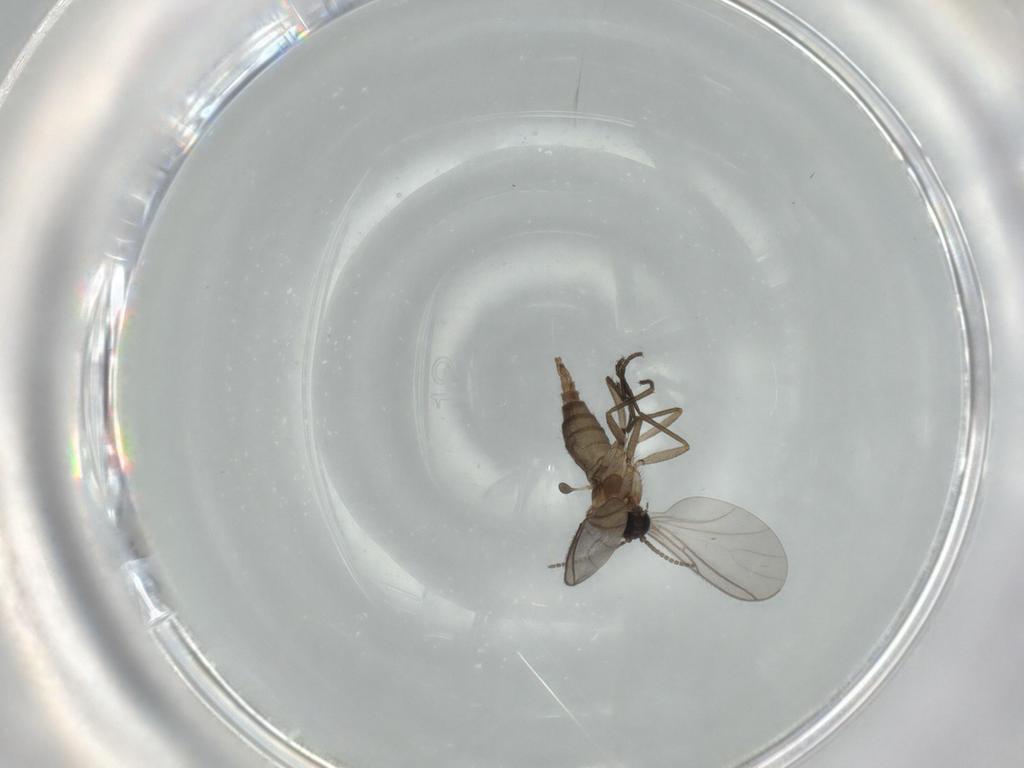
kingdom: Animalia
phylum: Arthropoda
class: Insecta
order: Diptera
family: Sciaridae
